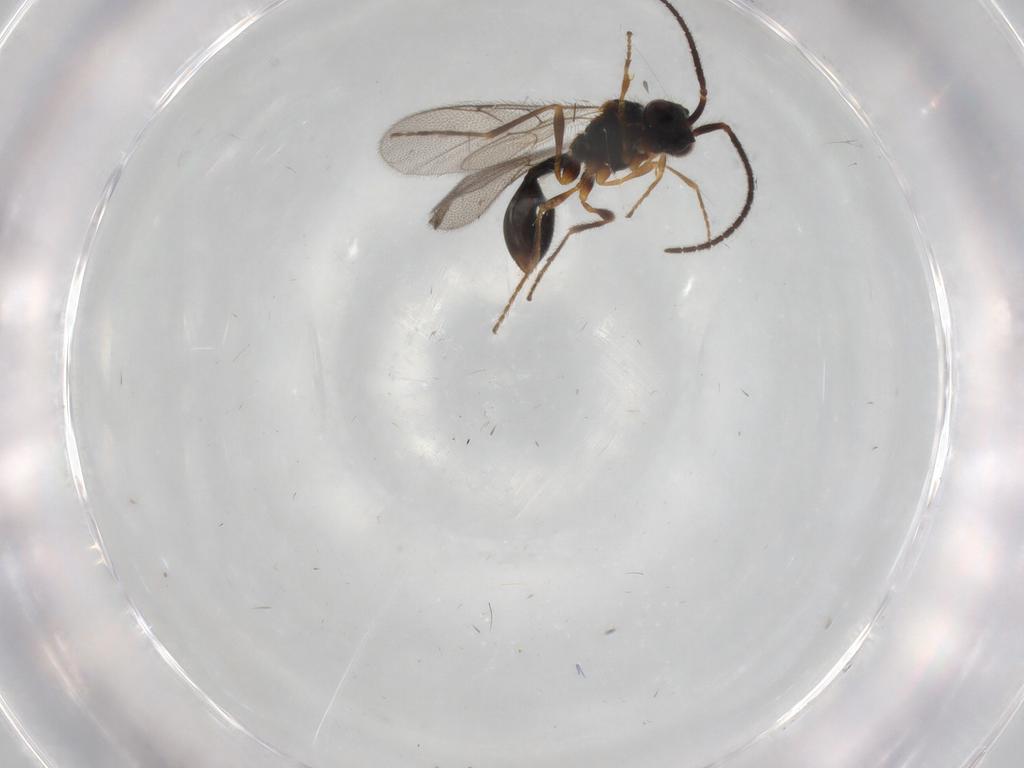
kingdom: Animalia
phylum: Arthropoda
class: Insecta
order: Hymenoptera
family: Diapriidae
